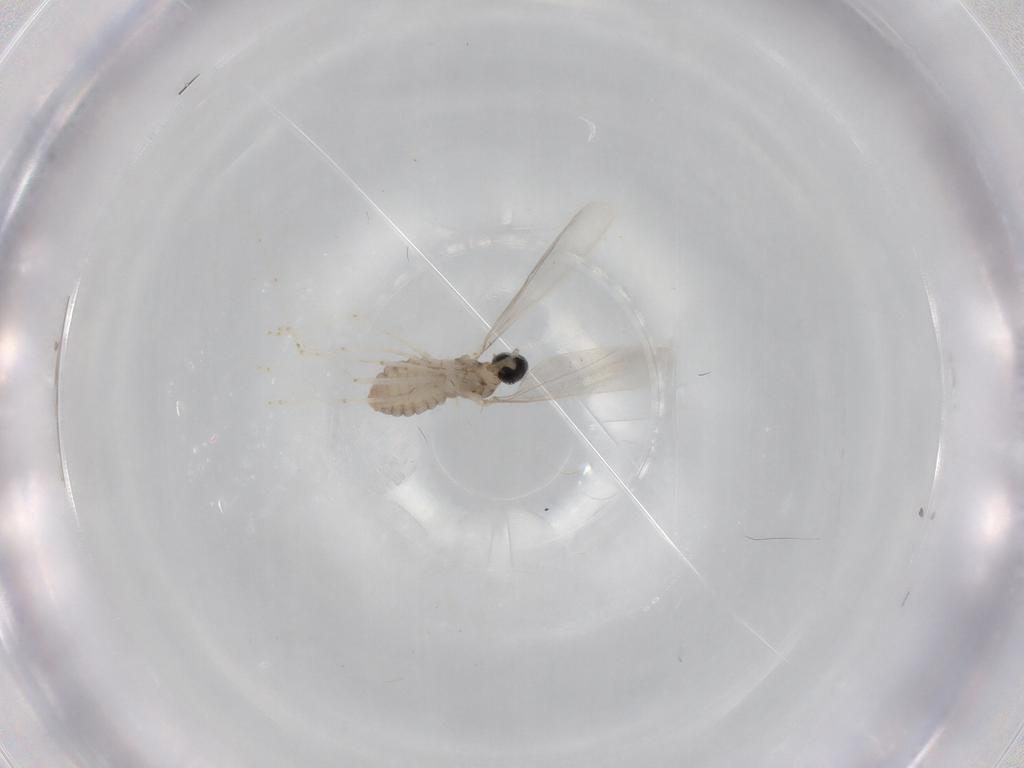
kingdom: Animalia
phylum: Arthropoda
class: Insecta
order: Diptera
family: Cecidomyiidae
